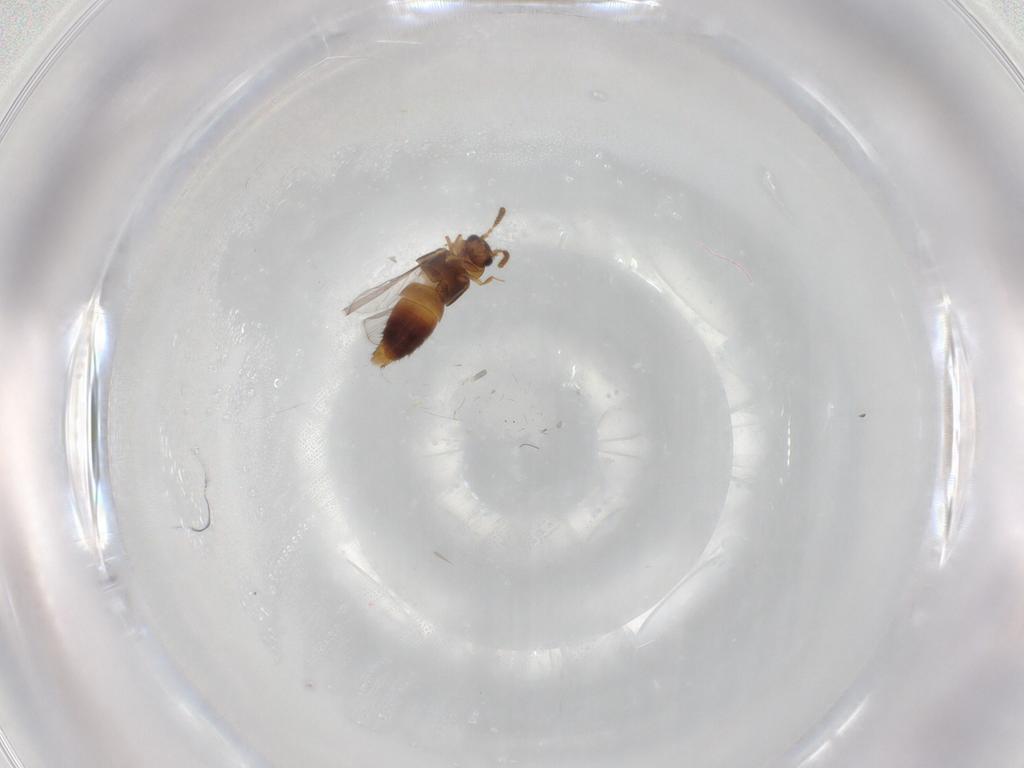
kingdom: Animalia
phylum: Arthropoda
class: Insecta
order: Coleoptera
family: Staphylinidae
